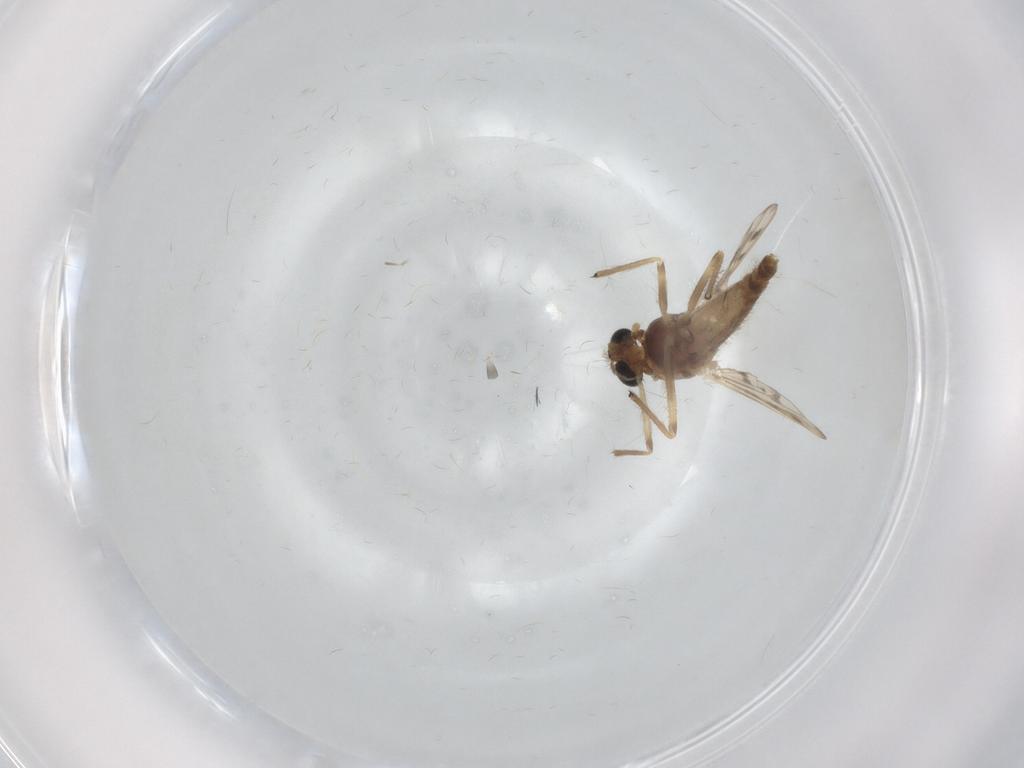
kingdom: Animalia
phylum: Arthropoda
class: Insecta
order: Diptera
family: Chironomidae
